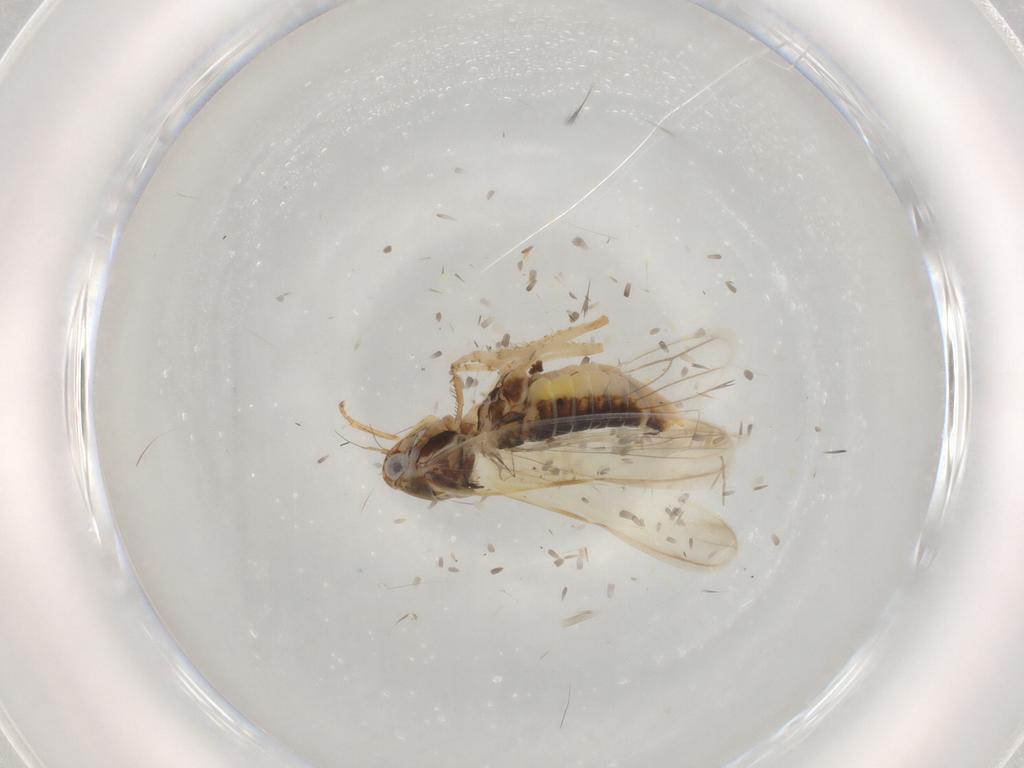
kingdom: Animalia
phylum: Arthropoda
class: Insecta
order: Hemiptera
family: Cicadellidae
